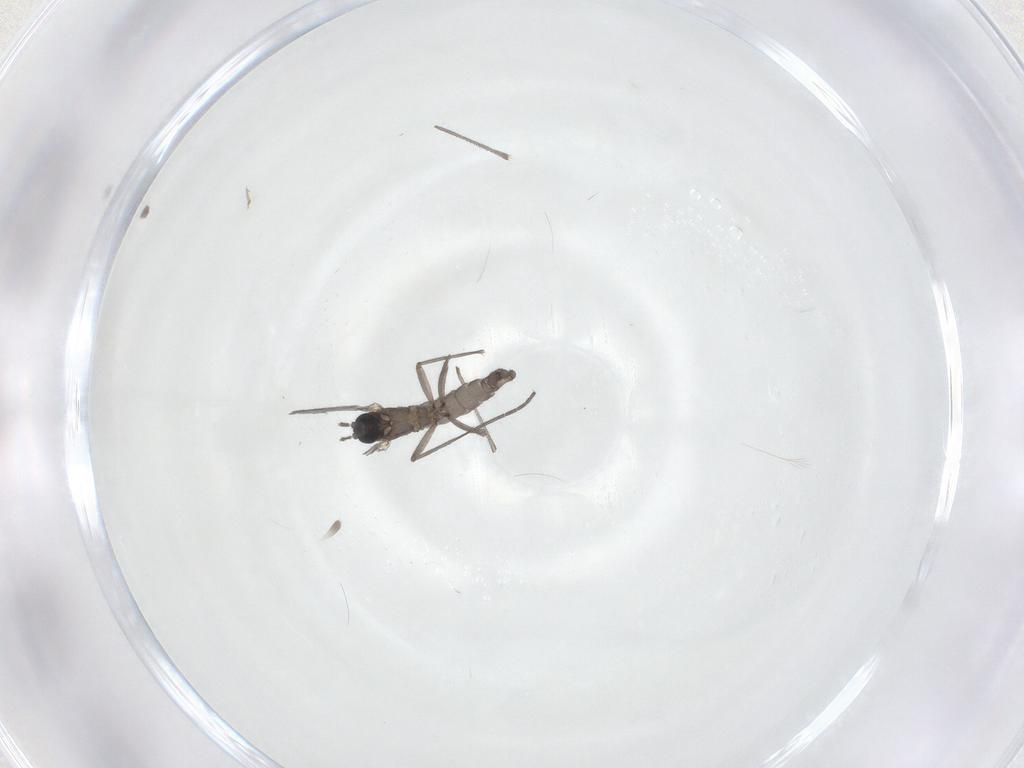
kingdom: Animalia
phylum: Arthropoda
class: Insecta
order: Diptera
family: Sciaridae
